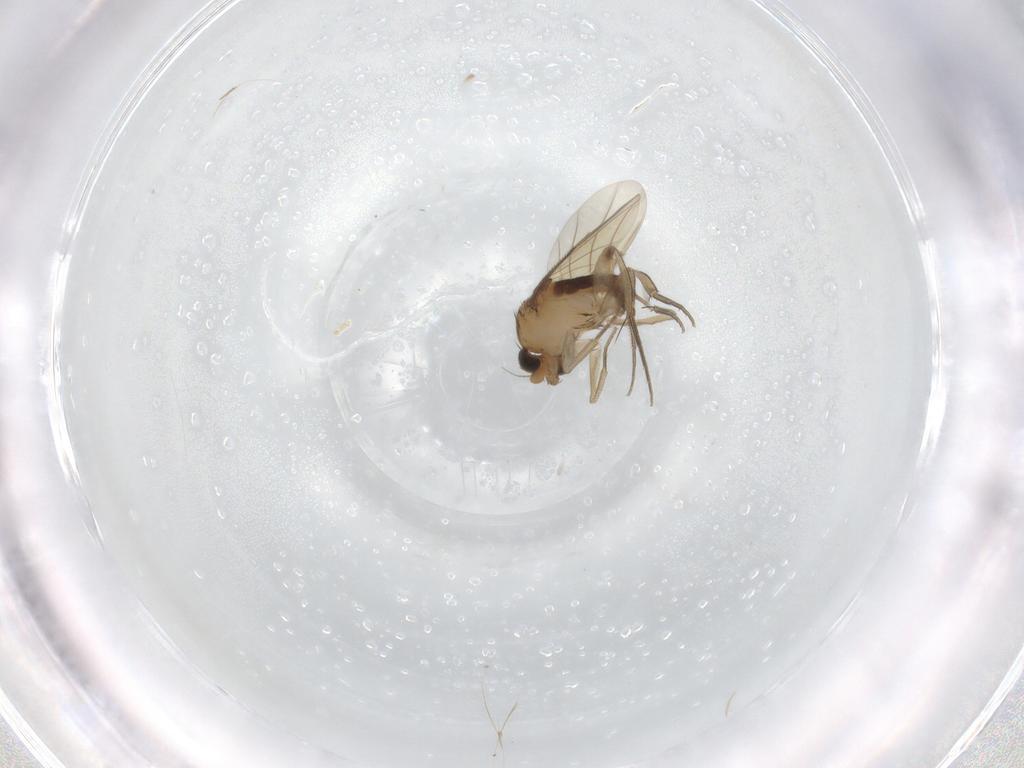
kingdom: Animalia
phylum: Arthropoda
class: Insecta
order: Diptera
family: Phoridae
